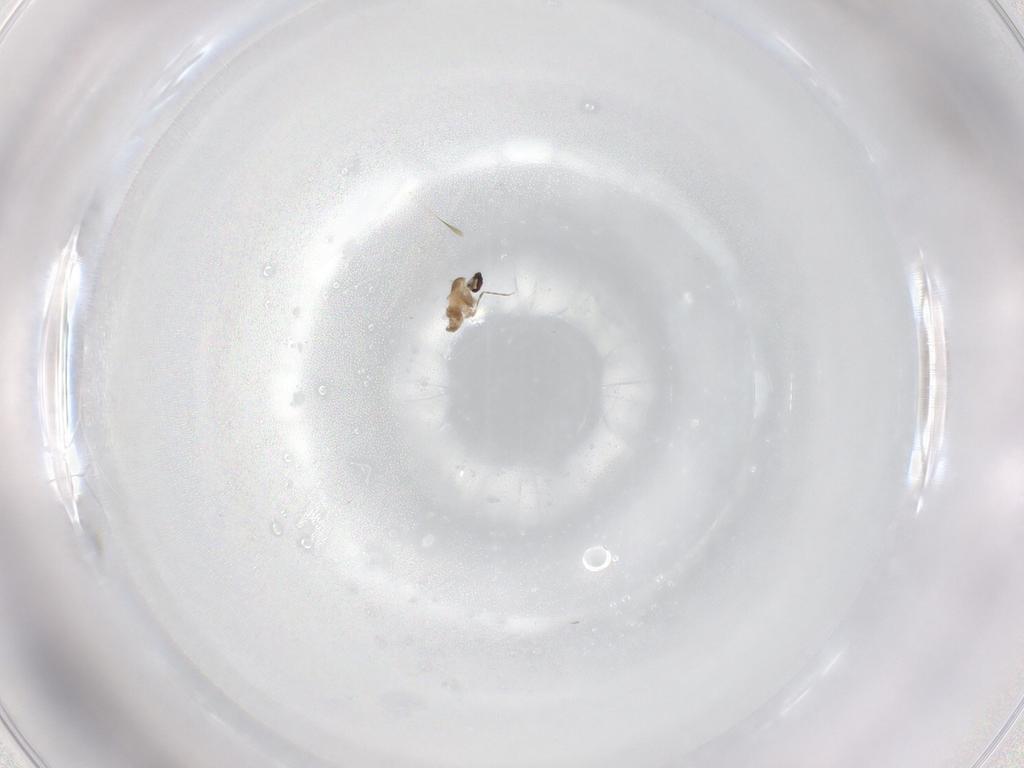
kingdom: Animalia
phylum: Arthropoda
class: Insecta
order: Diptera
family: Cecidomyiidae
